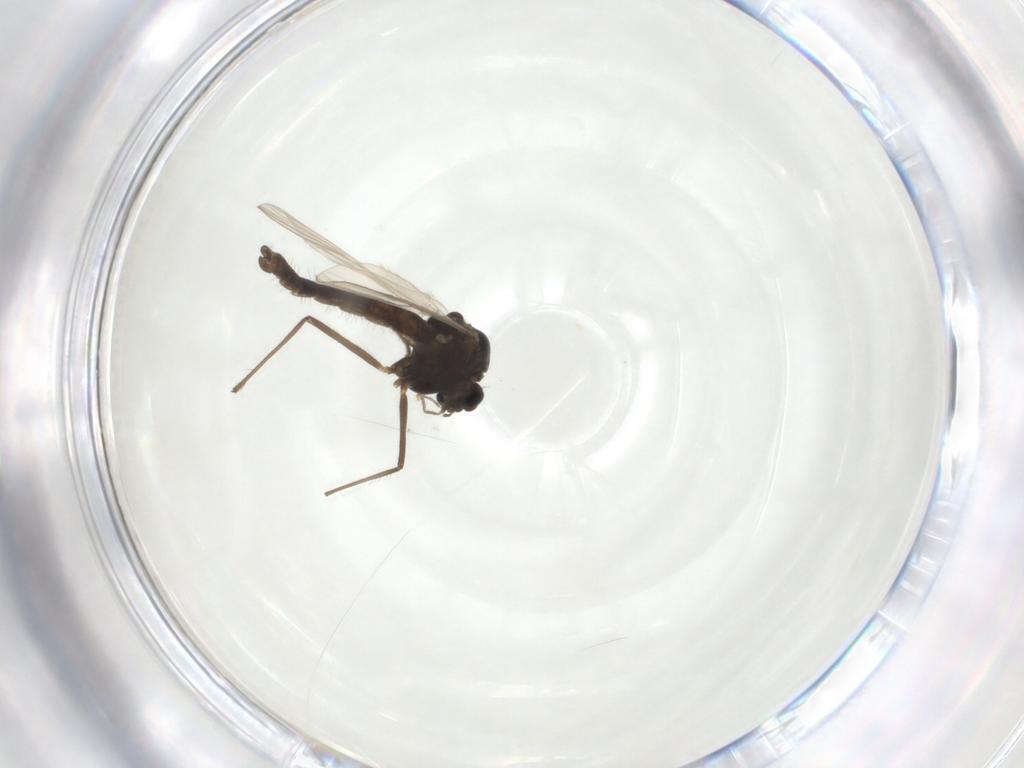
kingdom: Animalia
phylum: Arthropoda
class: Insecta
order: Diptera
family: Chironomidae
